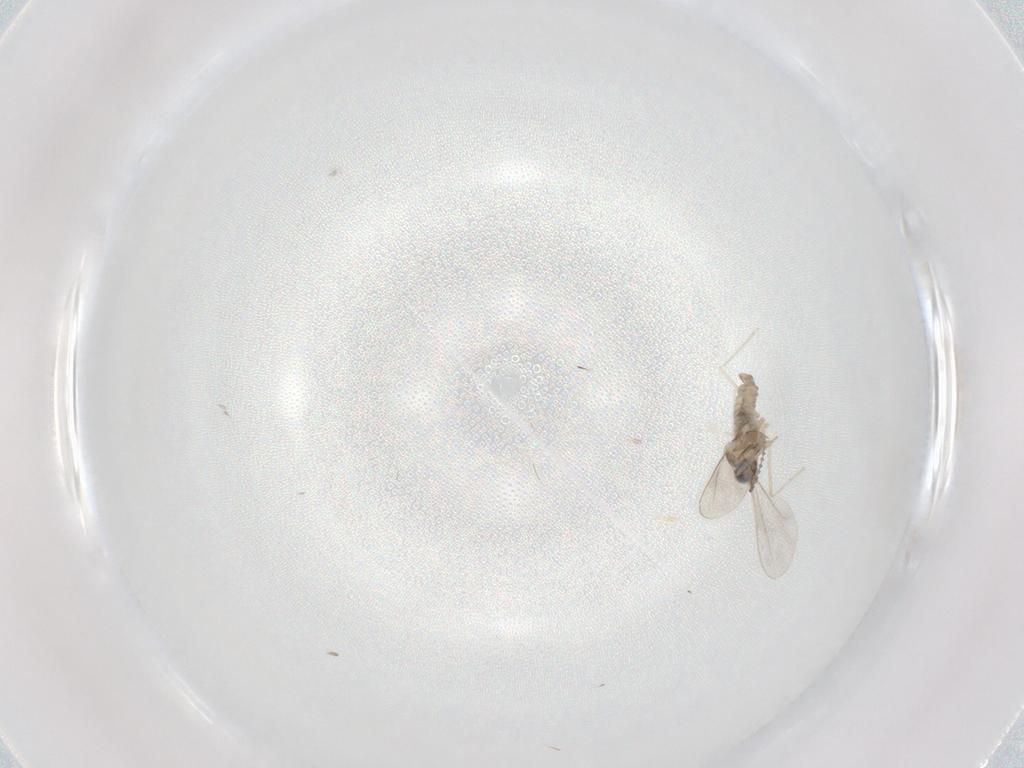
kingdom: Animalia
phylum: Arthropoda
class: Insecta
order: Diptera
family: Cecidomyiidae
